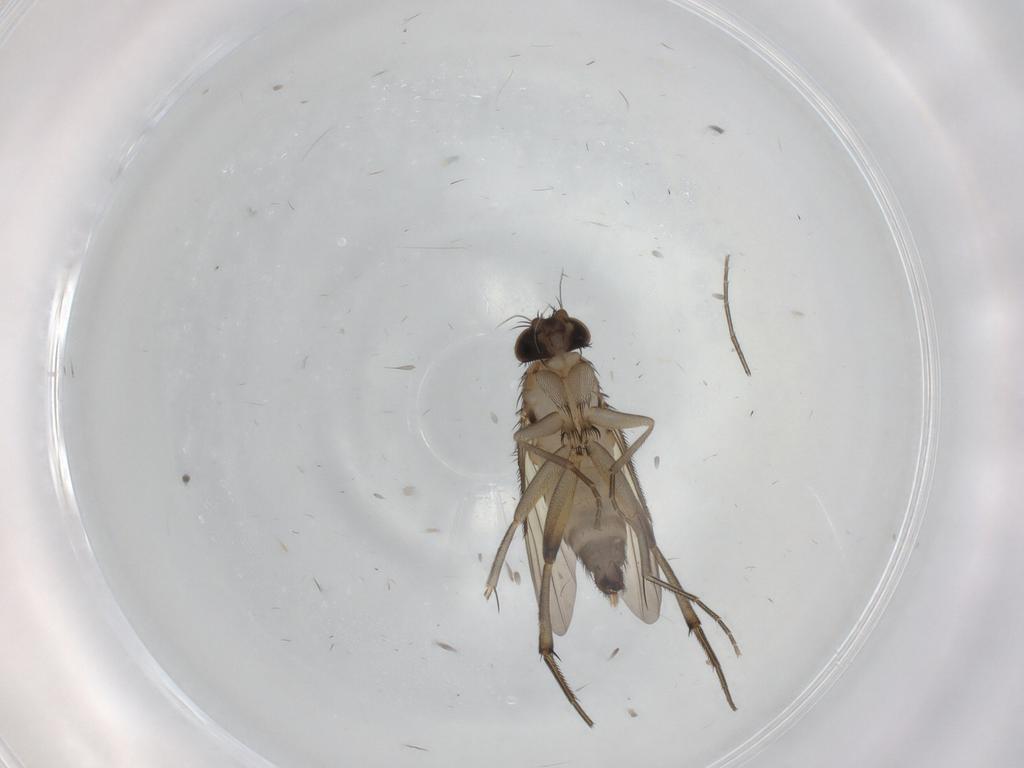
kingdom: Animalia
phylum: Arthropoda
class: Insecta
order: Diptera
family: Phoridae
